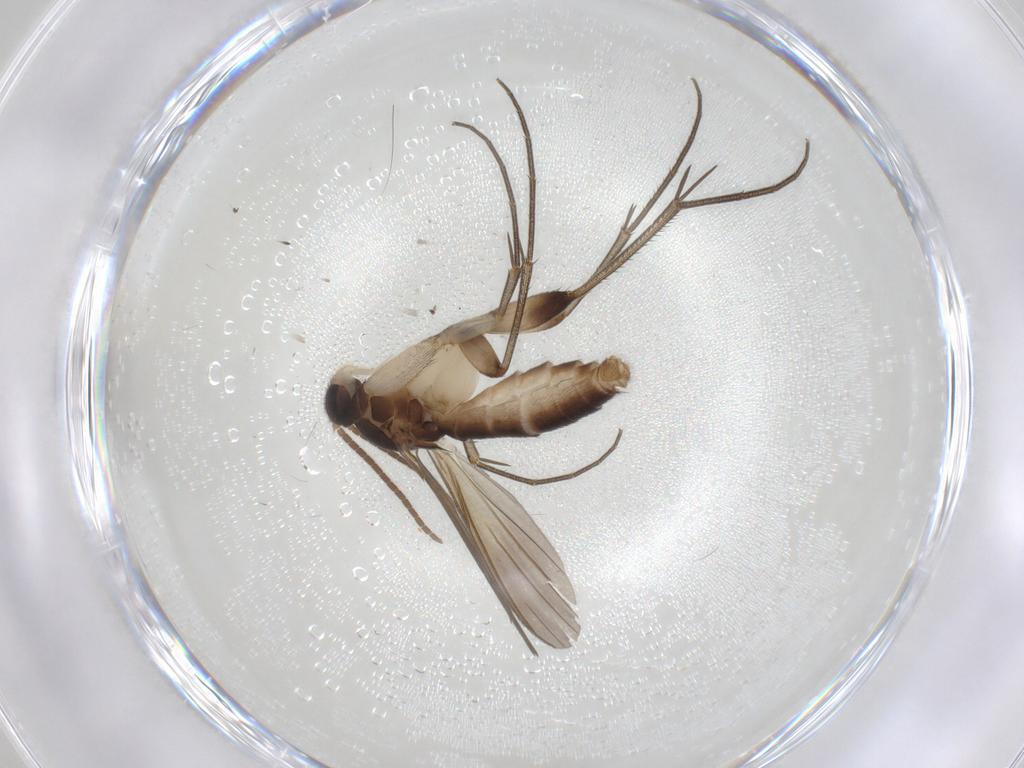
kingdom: Animalia
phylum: Arthropoda
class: Insecta
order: Diptera
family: Mycetophilidae
